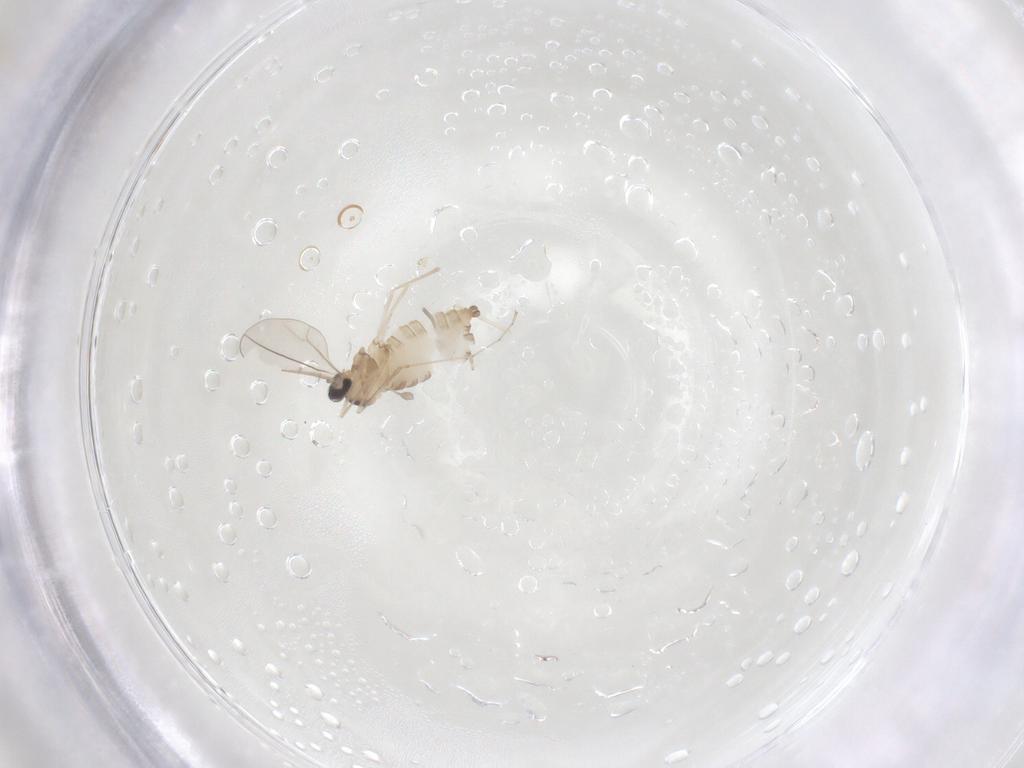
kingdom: Animalia
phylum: Arthropoda
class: Insecta
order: Diptera
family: Cecidomyiidae
